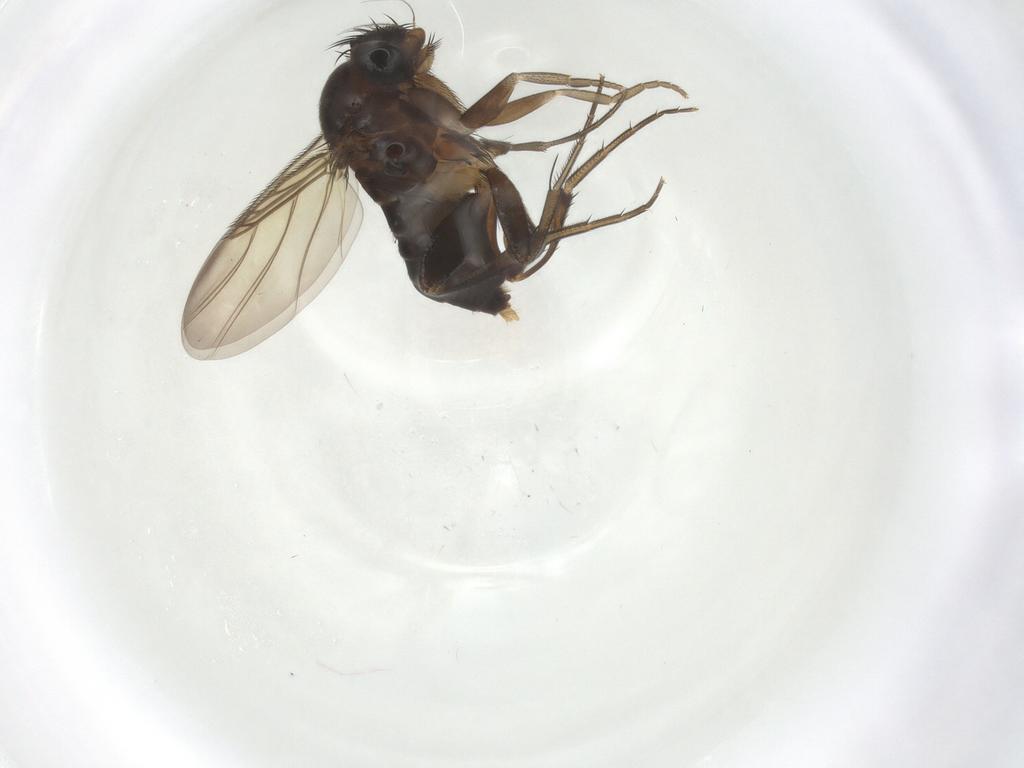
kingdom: Animalia
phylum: Arthropoda
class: Insecta
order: Diptera
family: Phoridae
